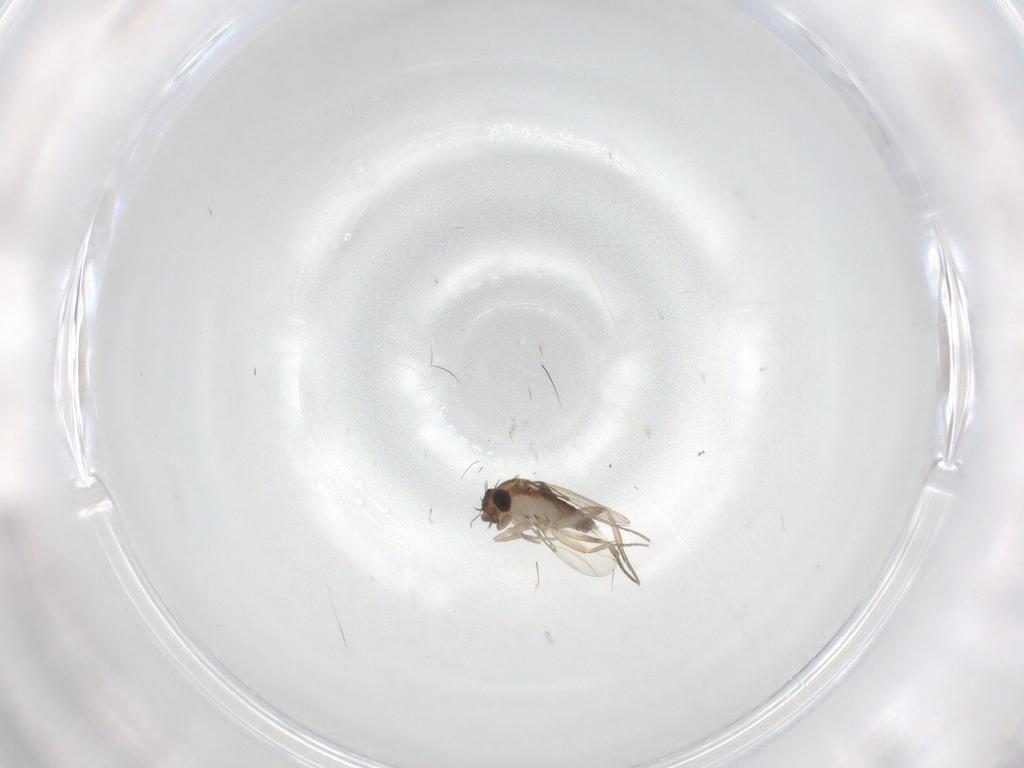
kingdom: Animalia
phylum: Arthropoda
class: Insecta
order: Diptera
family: Phoridae
